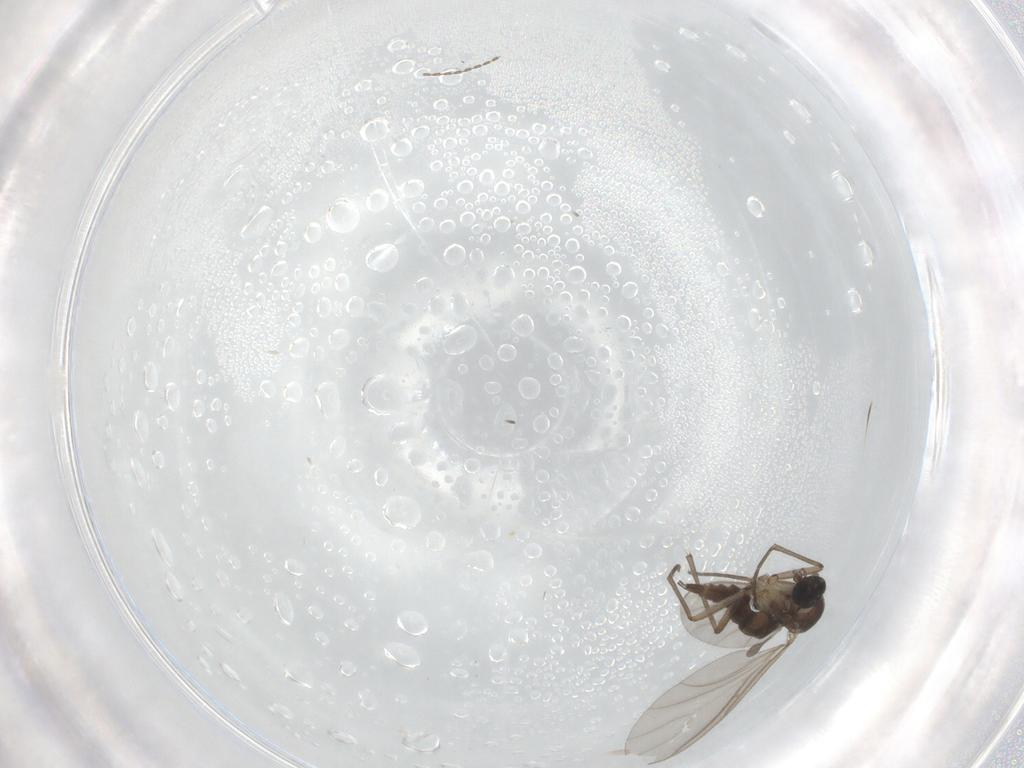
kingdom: Animalia
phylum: Arthropoda
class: Insecta
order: Diptera
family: Sciaridae
